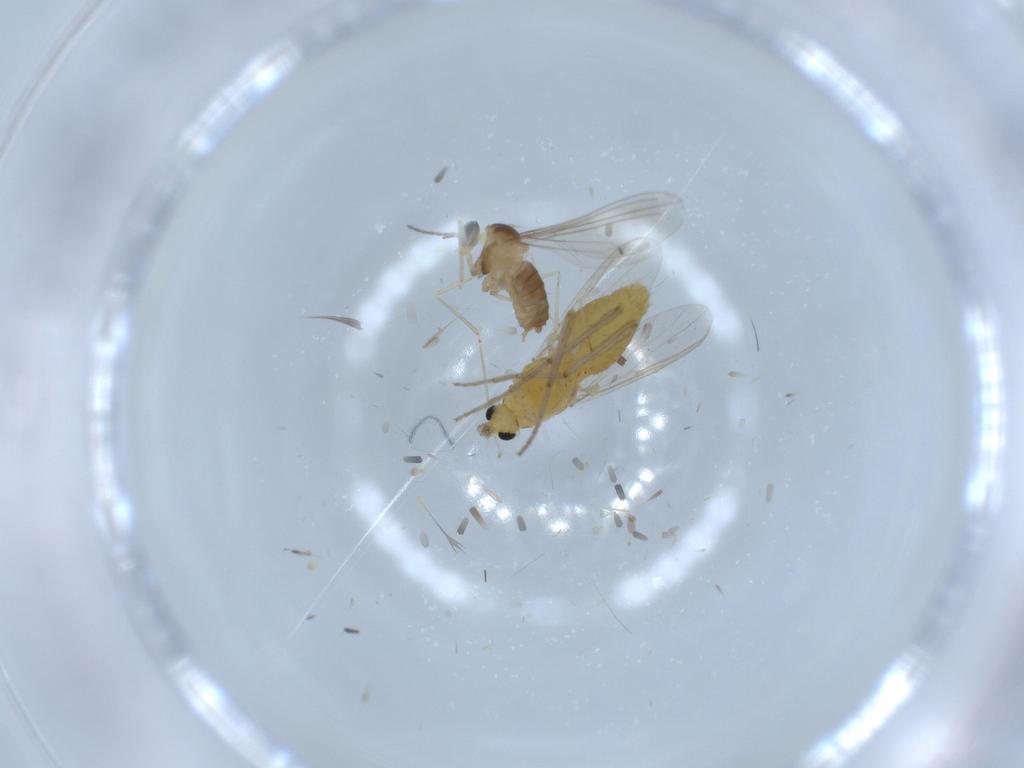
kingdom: Animalia
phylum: Arthropoda
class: Insecta
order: Diptera
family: Chironomidae
